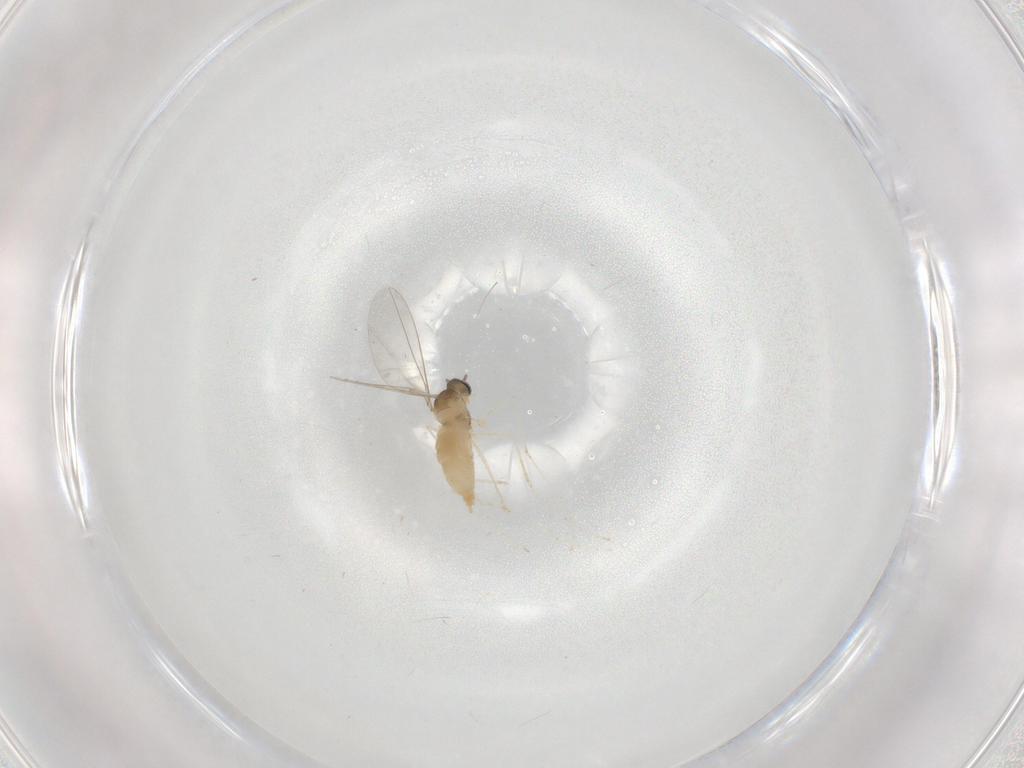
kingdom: Animalia
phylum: Arthropoda
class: Insecta
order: Diptera
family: Cecidomyiidae
